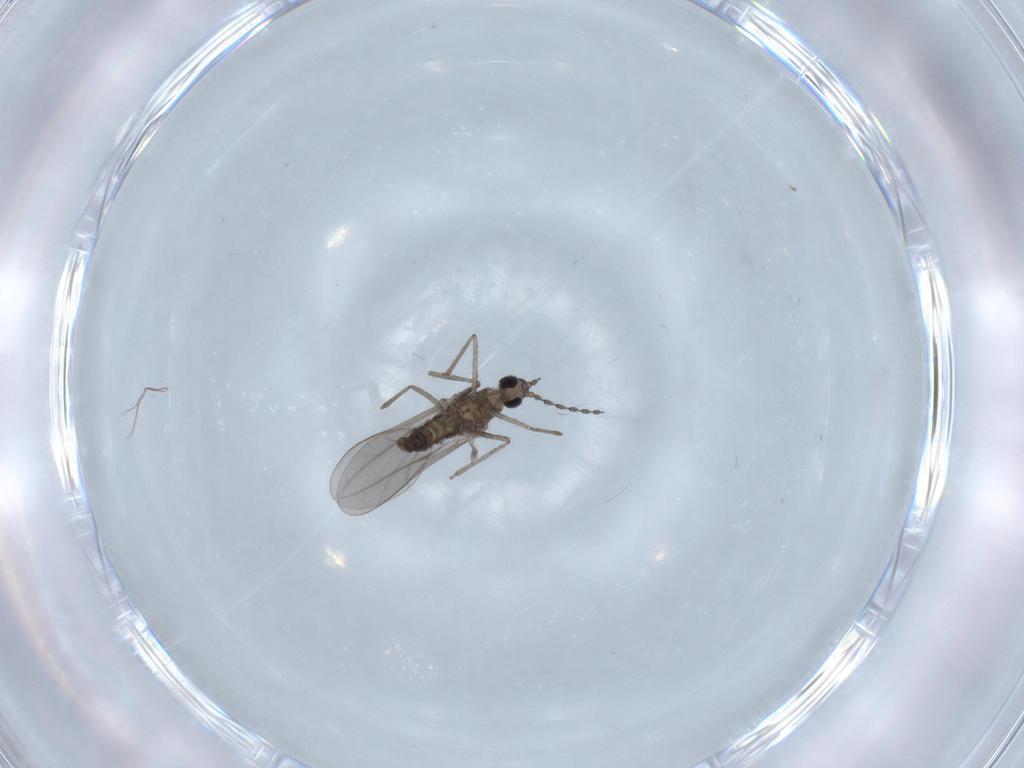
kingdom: Animalia
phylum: Arthropoda
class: Insecta
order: Diptera
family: Cecidomyiidae
